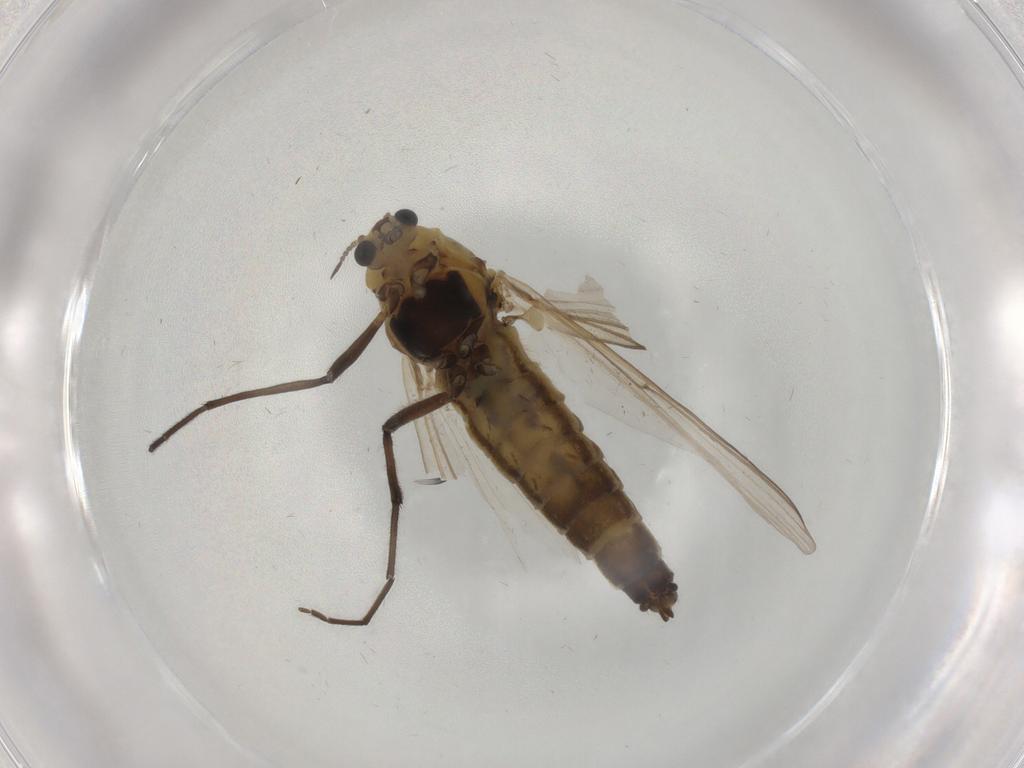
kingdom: Animalia
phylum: Arthropoda
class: Insecta
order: Diptera
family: Chironomidae
